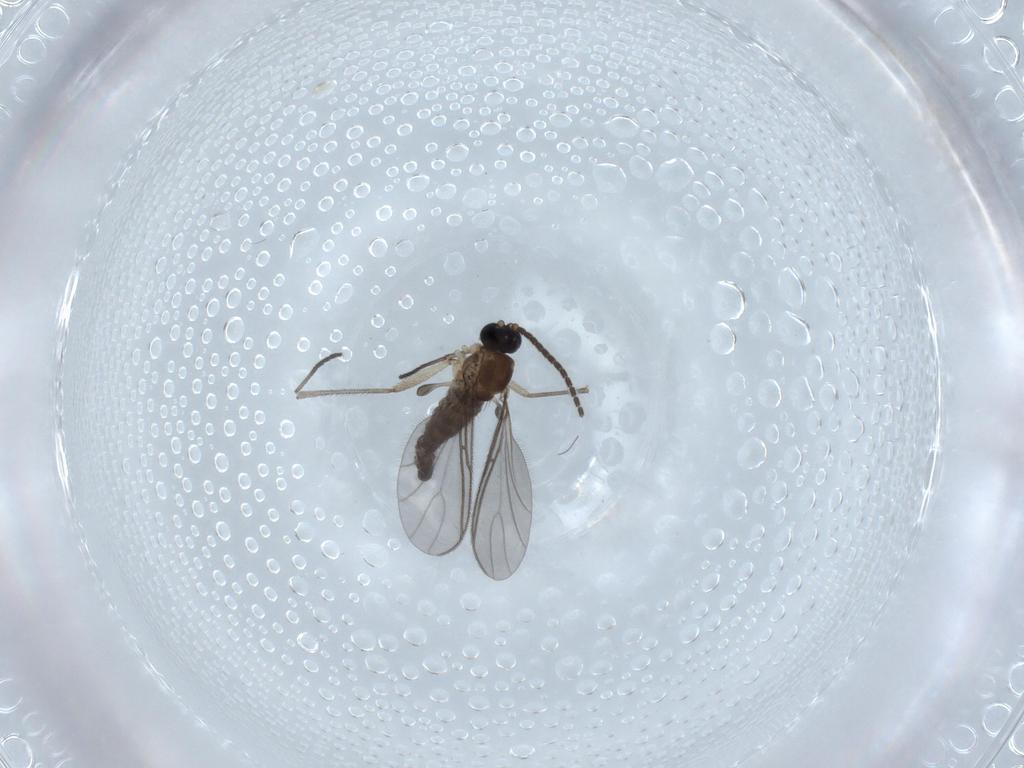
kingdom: Animalia
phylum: Arthropoda
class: Insecta
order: Diptera
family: Sciaridae
